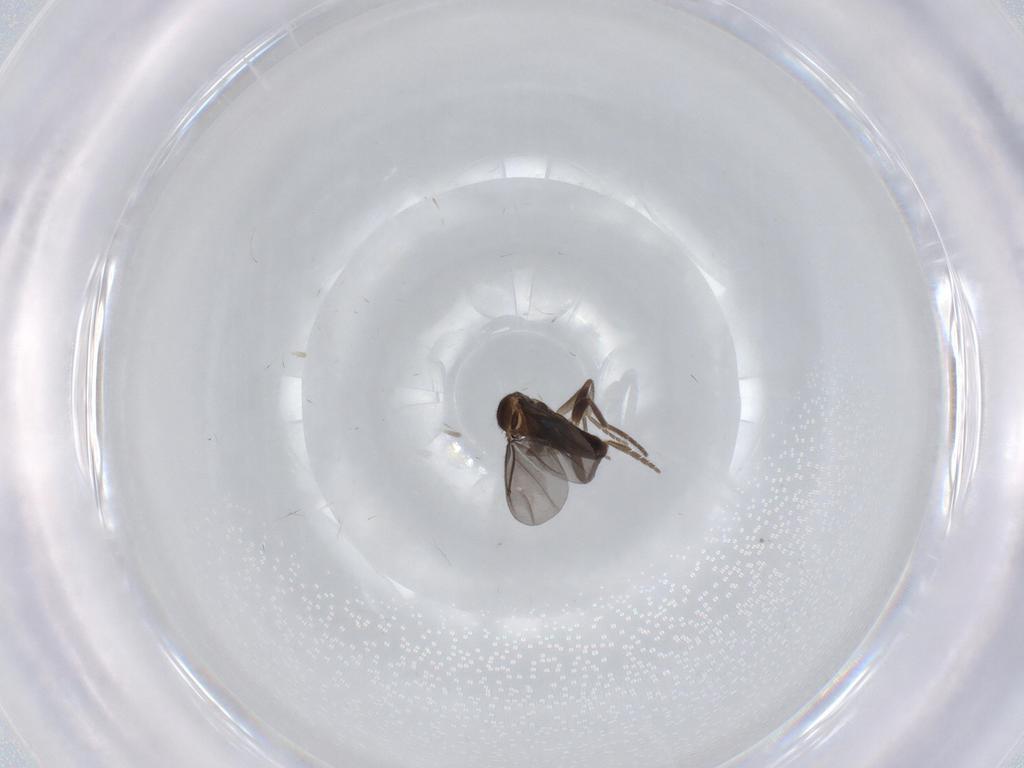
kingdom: Animalia
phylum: Arthropoda
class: Insecta
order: Diptera
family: Phoridae
